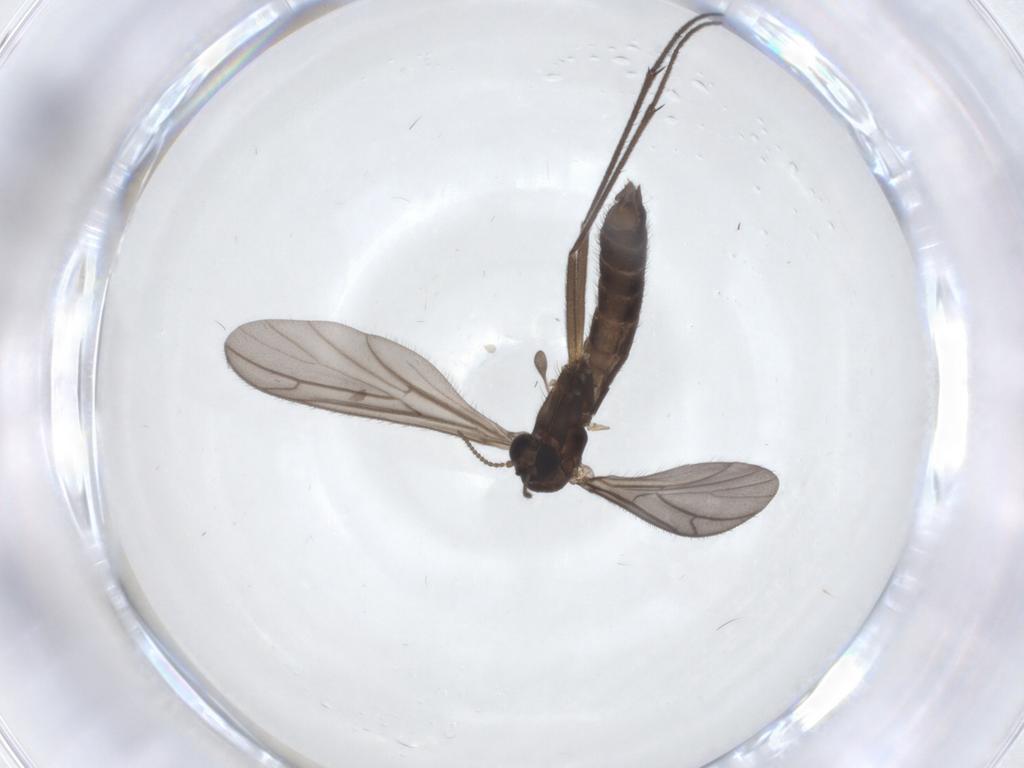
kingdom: Animalia
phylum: Arthropoda
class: Insecta
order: Diptera
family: Keroplatidae
